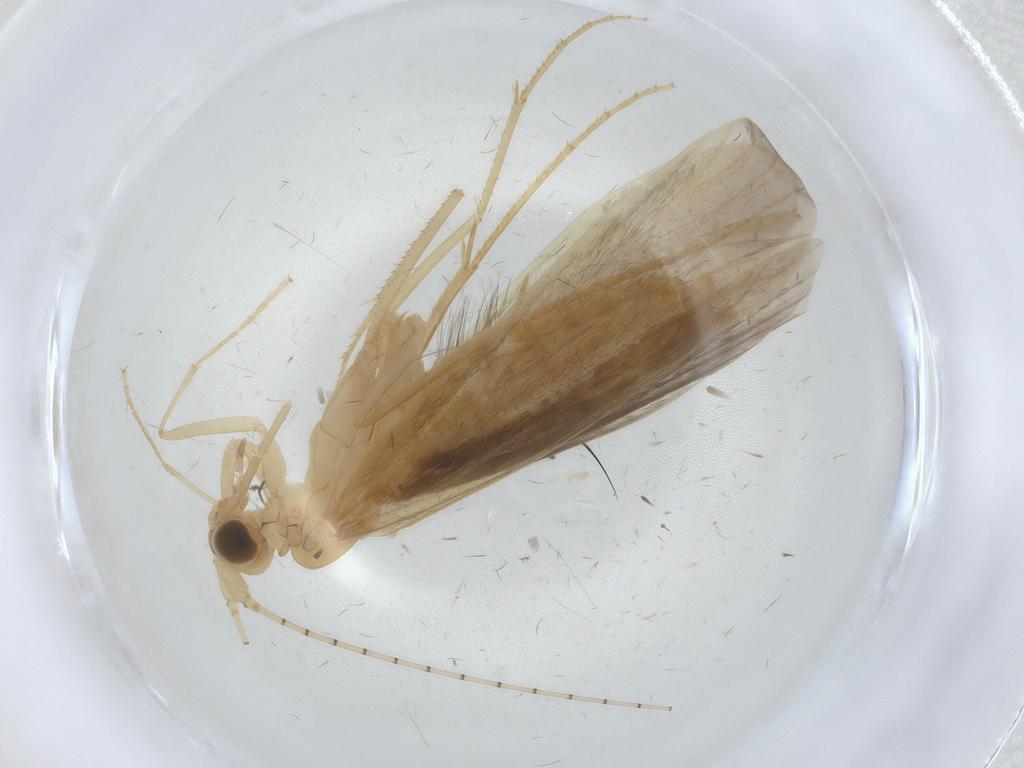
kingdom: Animalia
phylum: Arthropoda
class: Insecta
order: Trichoptera
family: Leptoceridae
